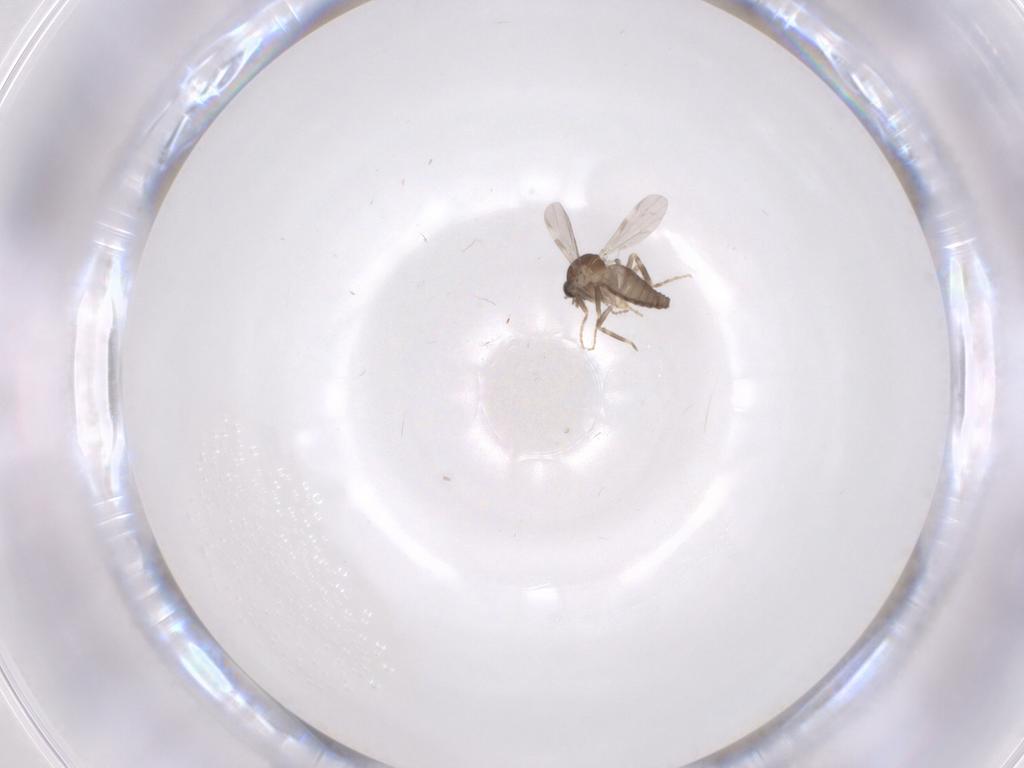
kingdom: Animalia
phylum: Arthropoda
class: Insecta
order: Diptera
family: Ceratopogonidae
